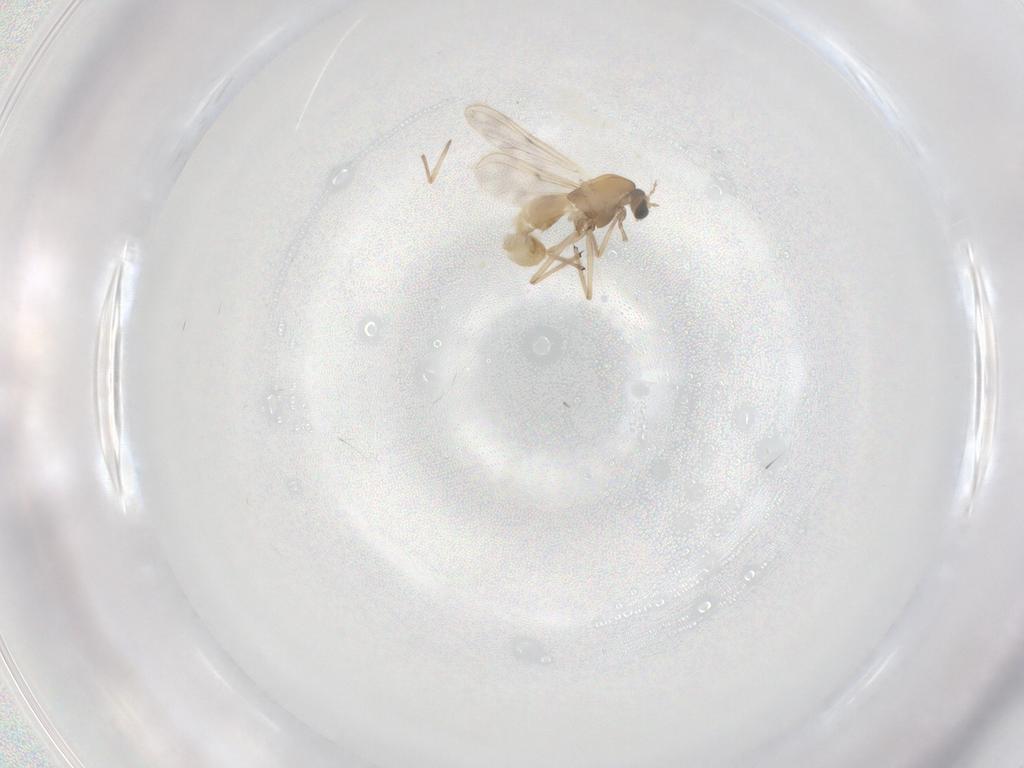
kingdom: Animalia
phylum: Arthropoda
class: Insecta
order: Diptera
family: Chironomidae
